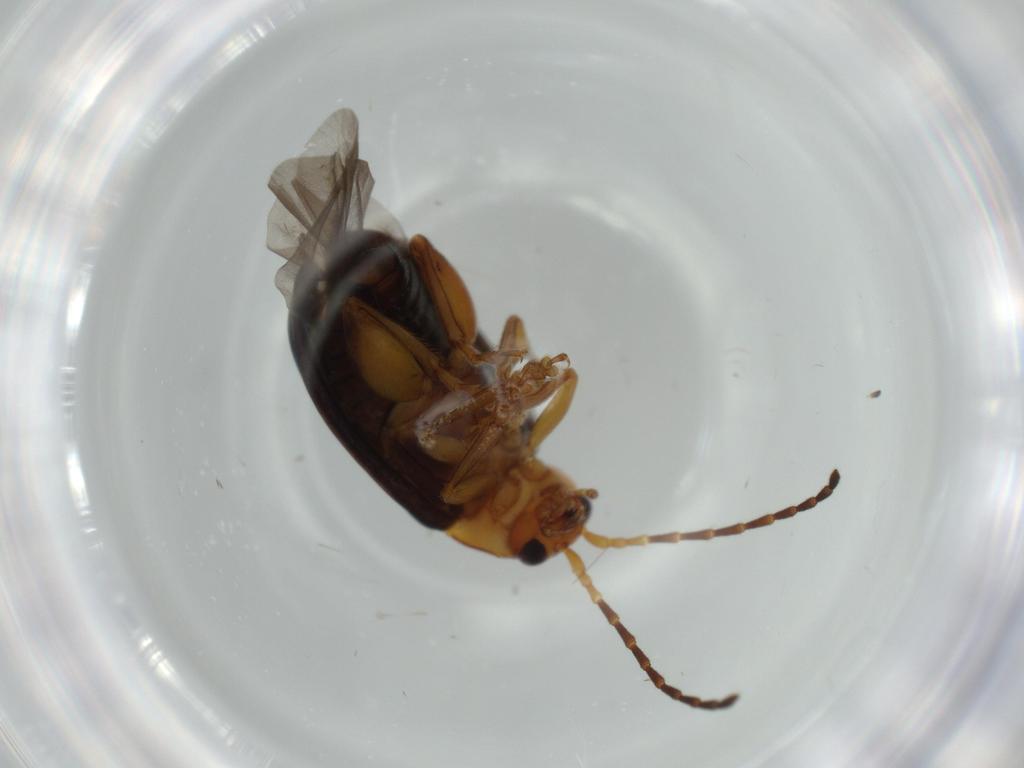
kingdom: Animalia
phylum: Arthropoda
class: Insecta
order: Coleoptera
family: Chrysomelidae
